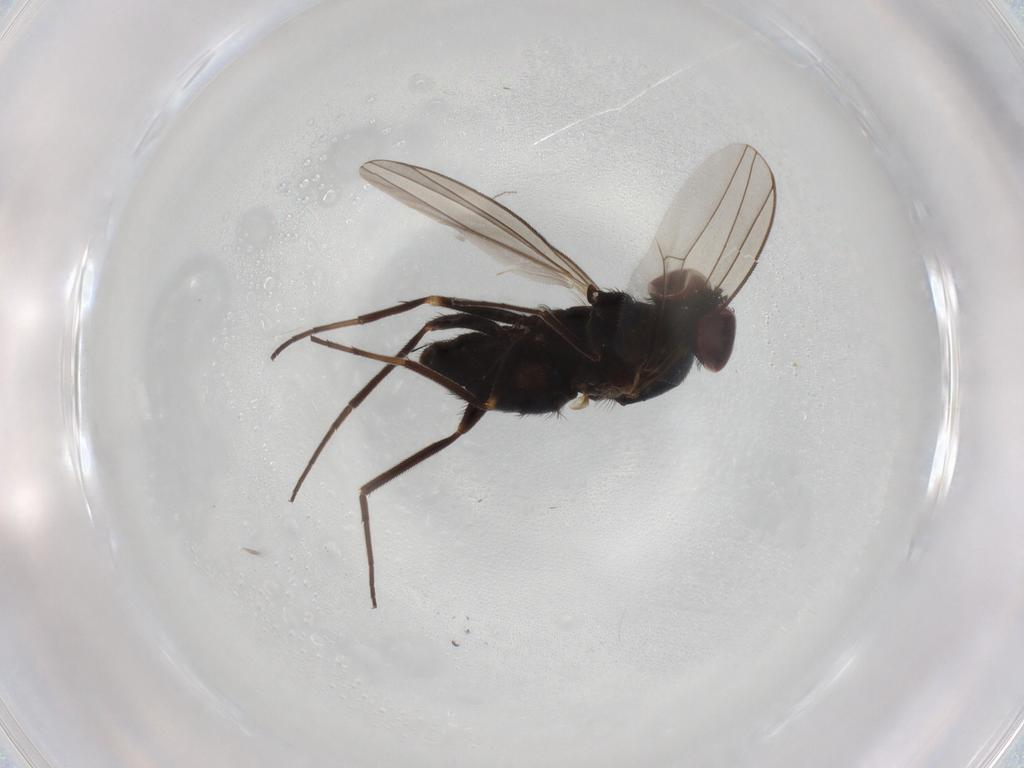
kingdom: Animalia
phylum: Arthropoda
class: Insecta
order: Diptera
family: Dolichopodidae
